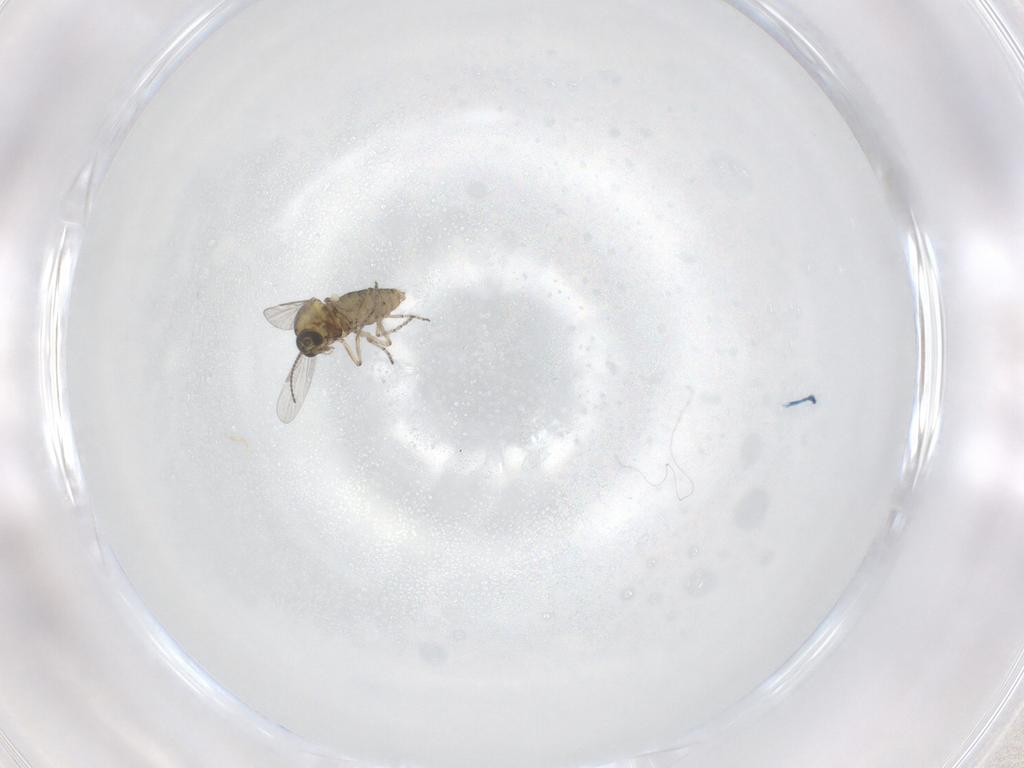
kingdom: Animalia
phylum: Arthropoda
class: Insecta
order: Diptera
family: Ceratopogonidae
